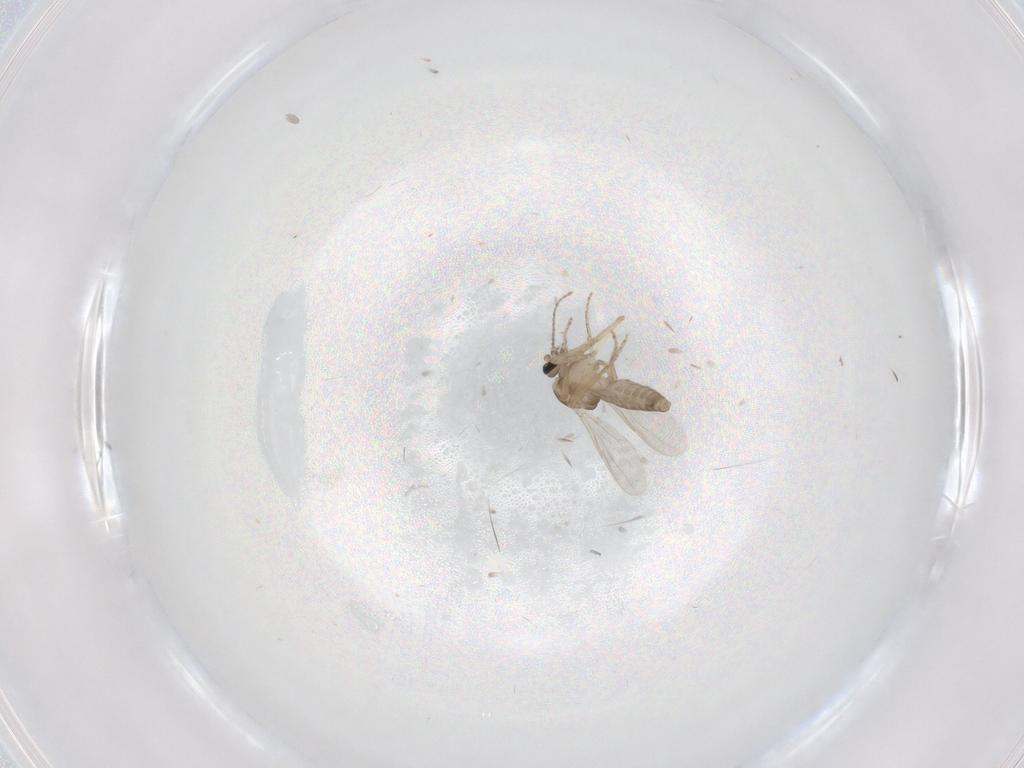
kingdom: Animalia
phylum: Arthropoda
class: Insecta
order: Diptera
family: Ceratopogonidae
